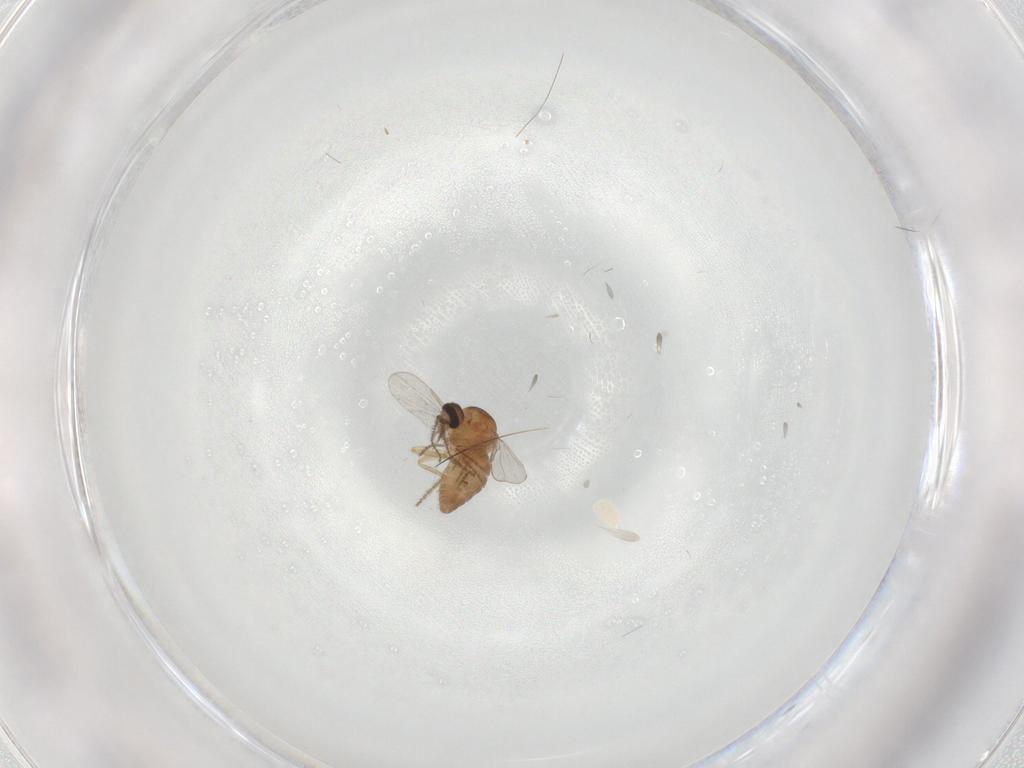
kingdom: Animalia
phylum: Arthropoda
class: Insecta
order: Diptera
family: Ceratopogonidae
